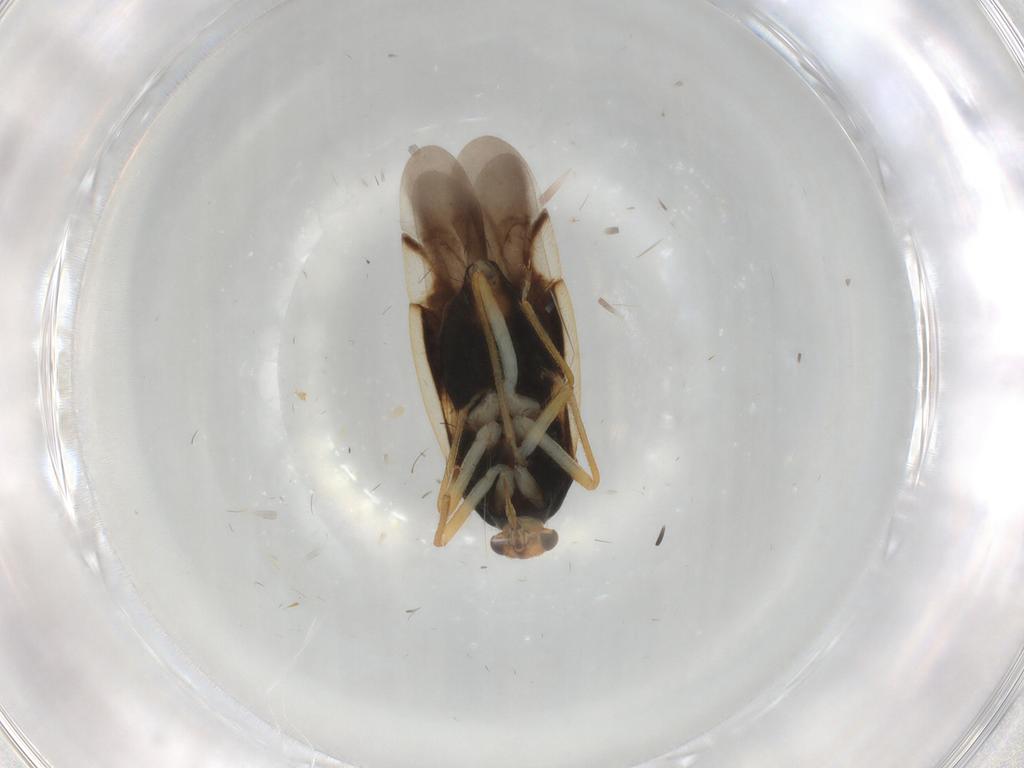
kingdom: Animalia
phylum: Arthropoda
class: Insecta
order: Hemiptera
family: Miridae
